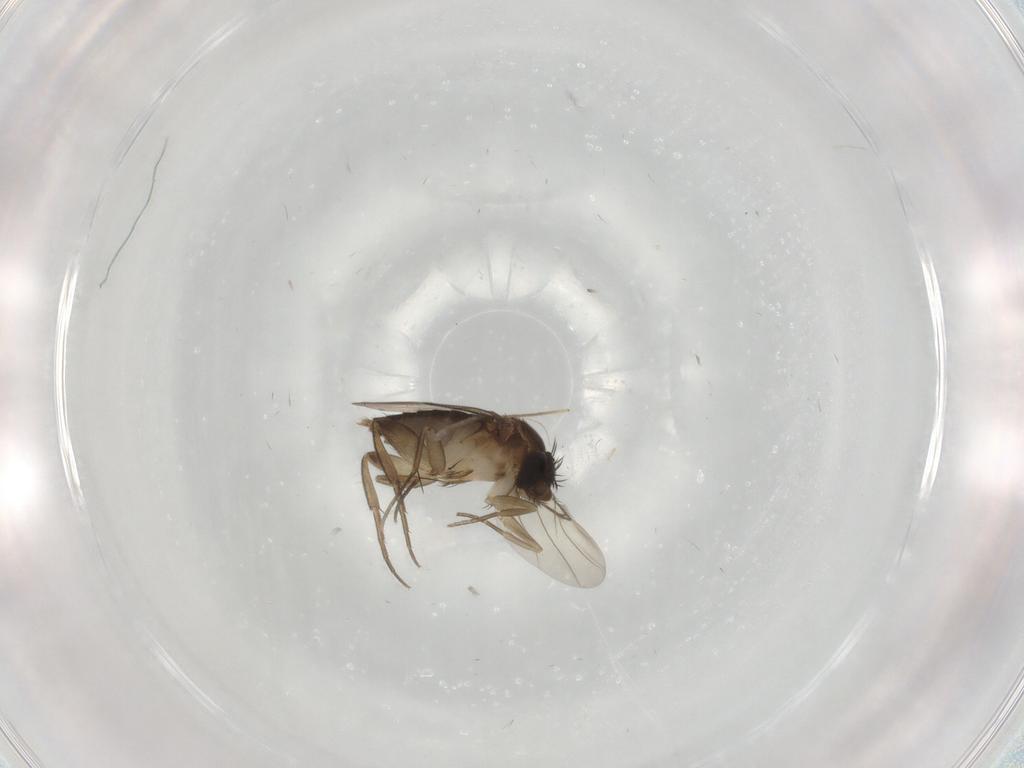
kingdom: Animalia
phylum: Arthropoda
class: Insecta
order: Diptera
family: Phoridae
